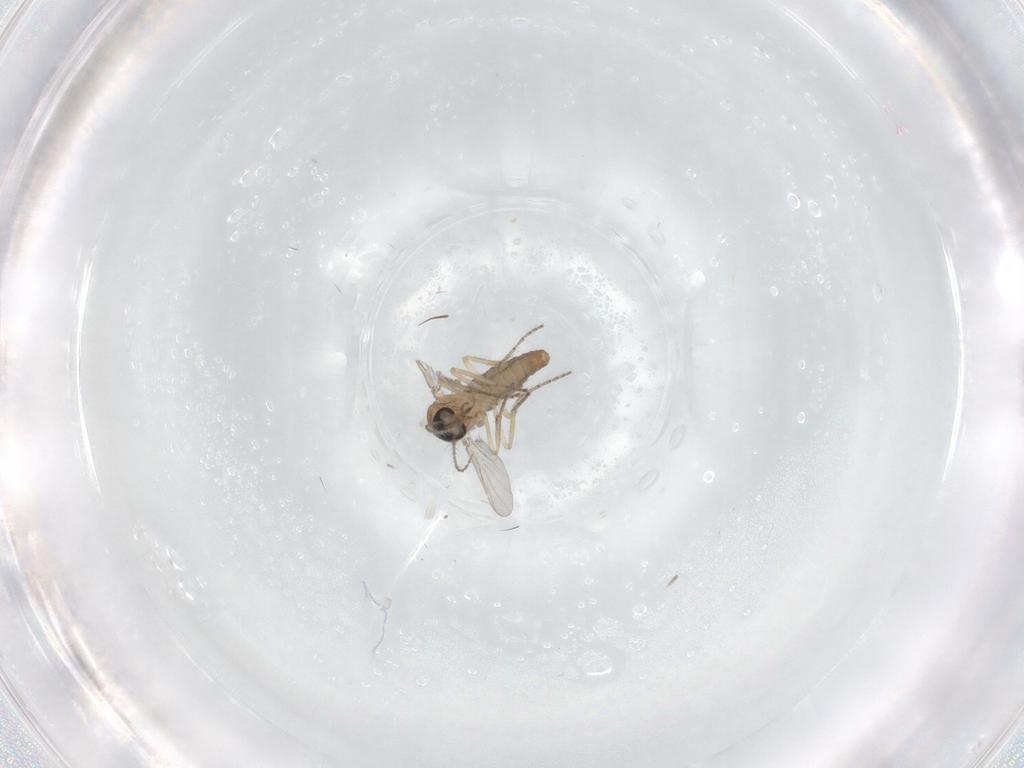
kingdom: Animalia
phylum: Arthropoda
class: Insecta
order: Diptera
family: Ceratopogonidae
